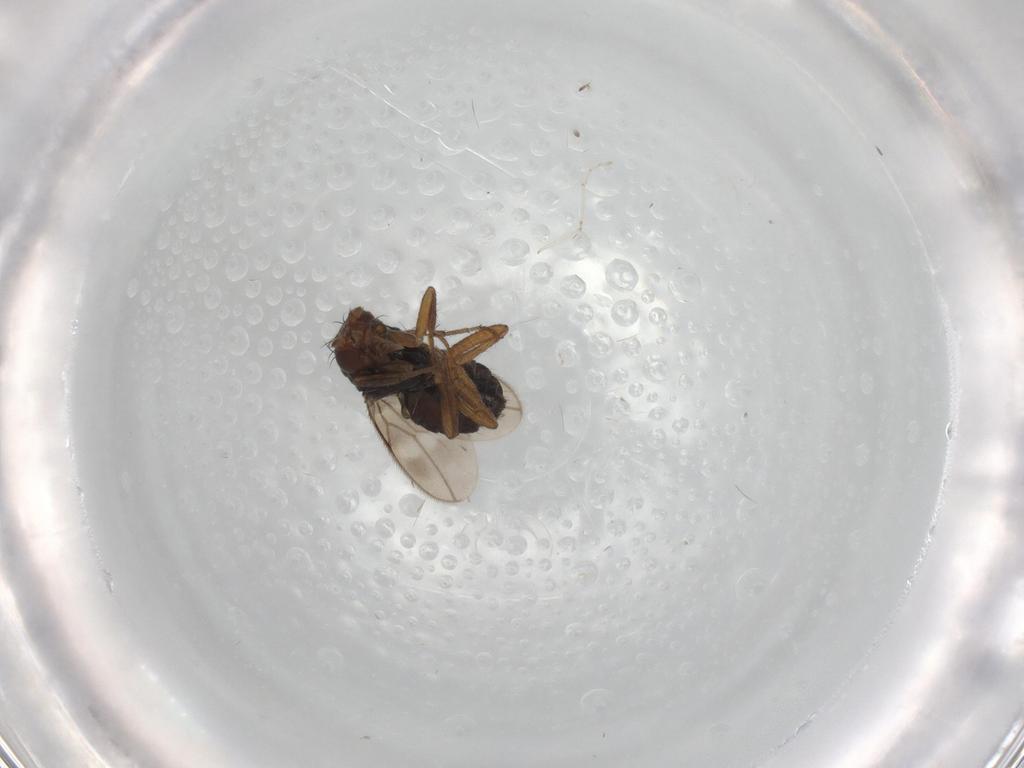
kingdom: Animalia
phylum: Arthropoda
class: Insecta
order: Diptera
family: Sphaeroceridae
